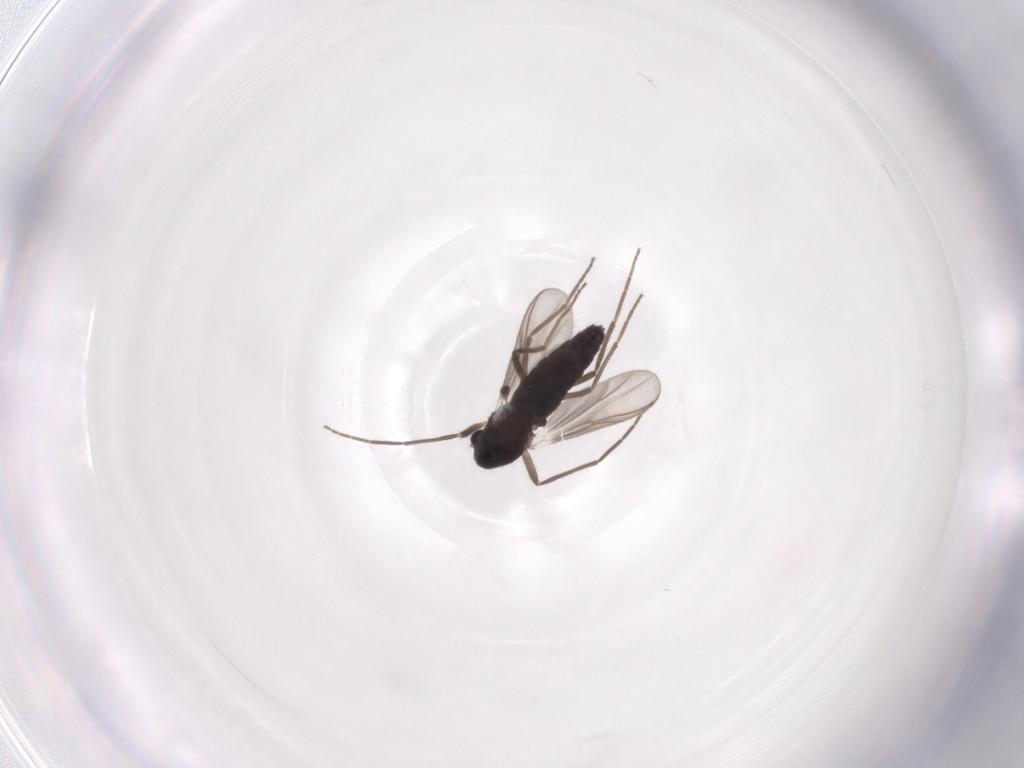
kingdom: Animalia
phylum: Arthropoda
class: Insecta
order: Diptera
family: Chironomidae
